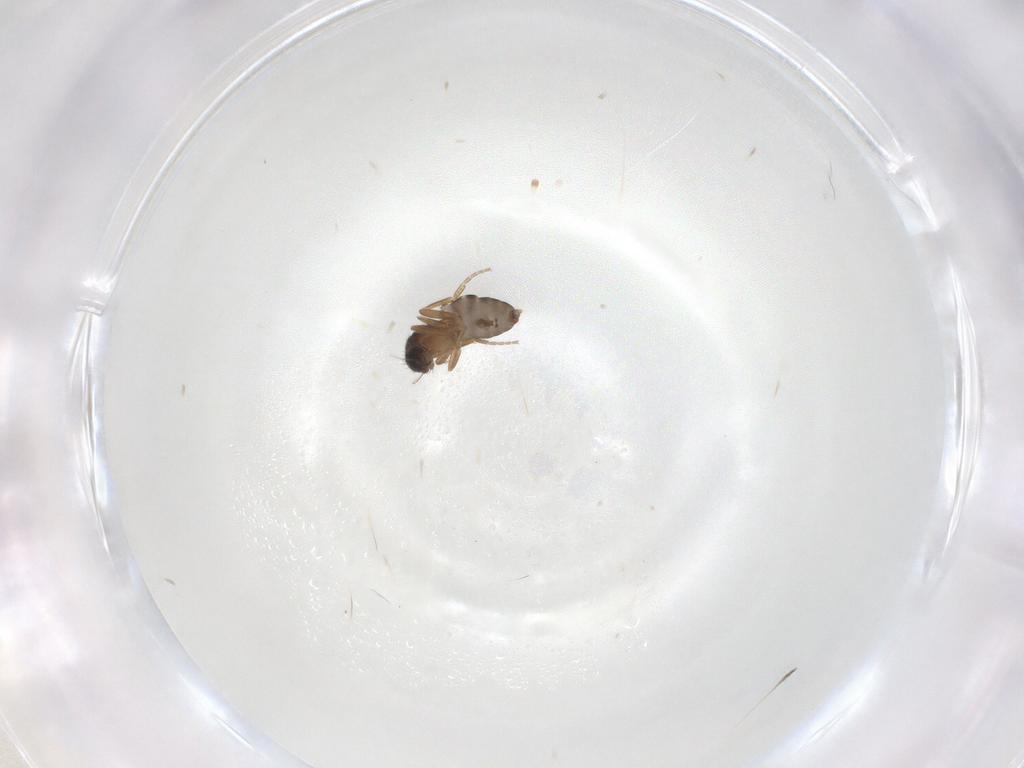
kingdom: Animalia
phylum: Arthropoda
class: Insecta
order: Diptera
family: Phoridae
